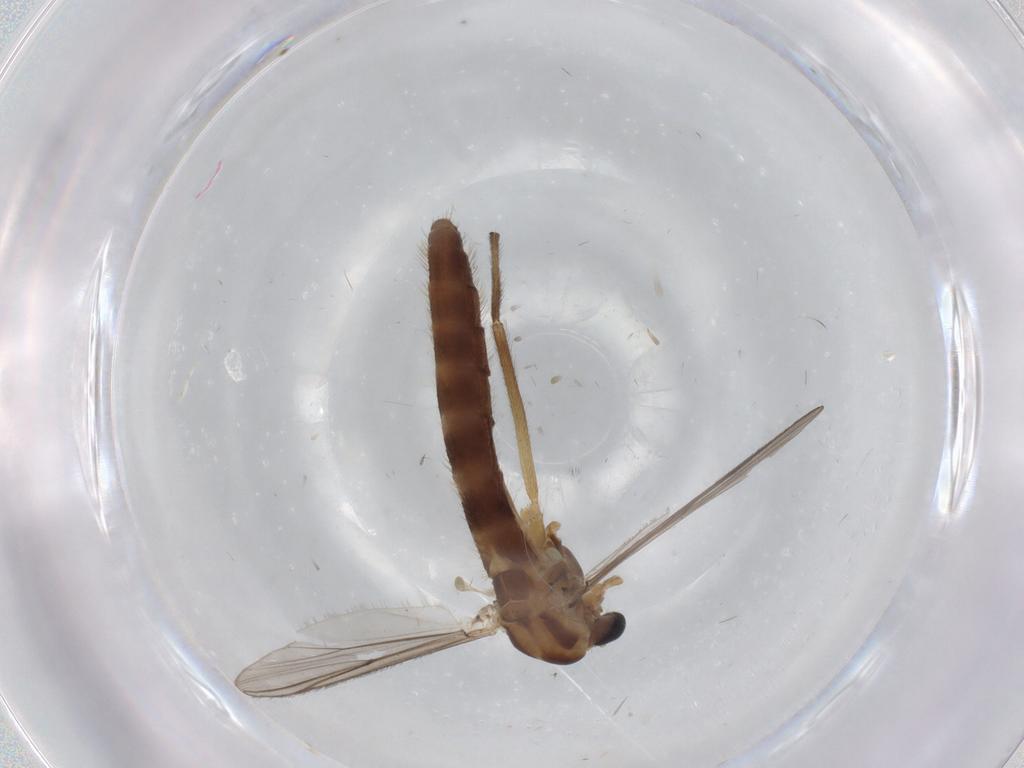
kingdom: Animalia
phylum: Arthropoda
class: Insecta
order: Diptera
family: Chironomidae
